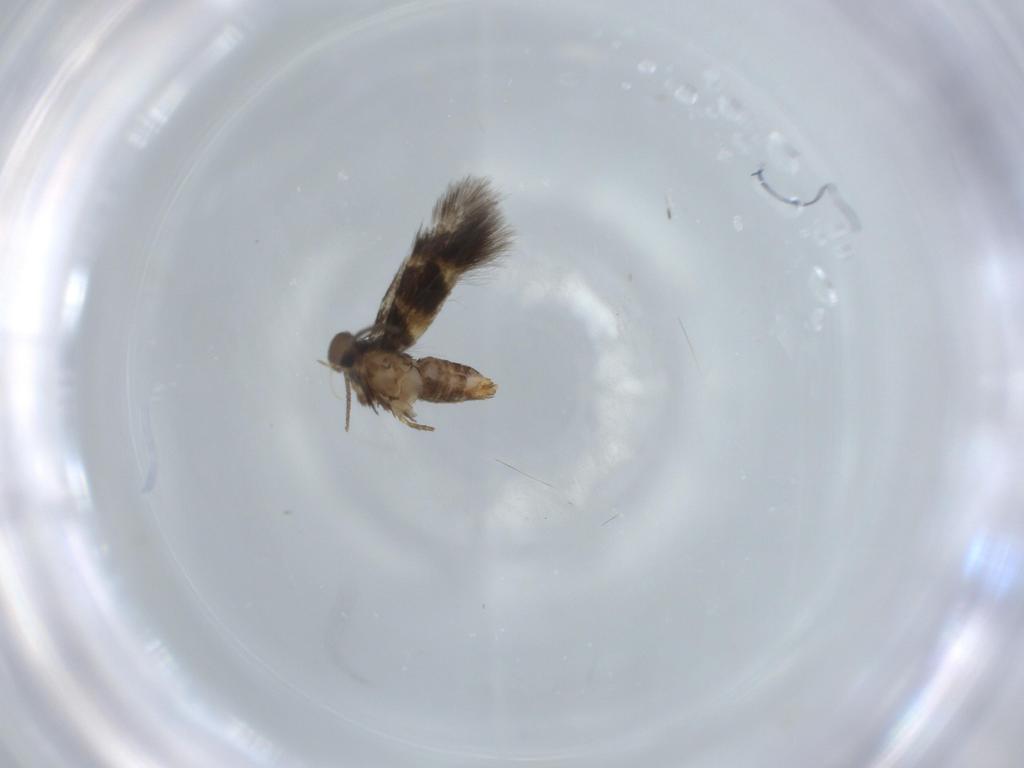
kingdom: Animalia
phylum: Arthropoda
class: Insecta
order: Lepidoptera
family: Heliozelidae
